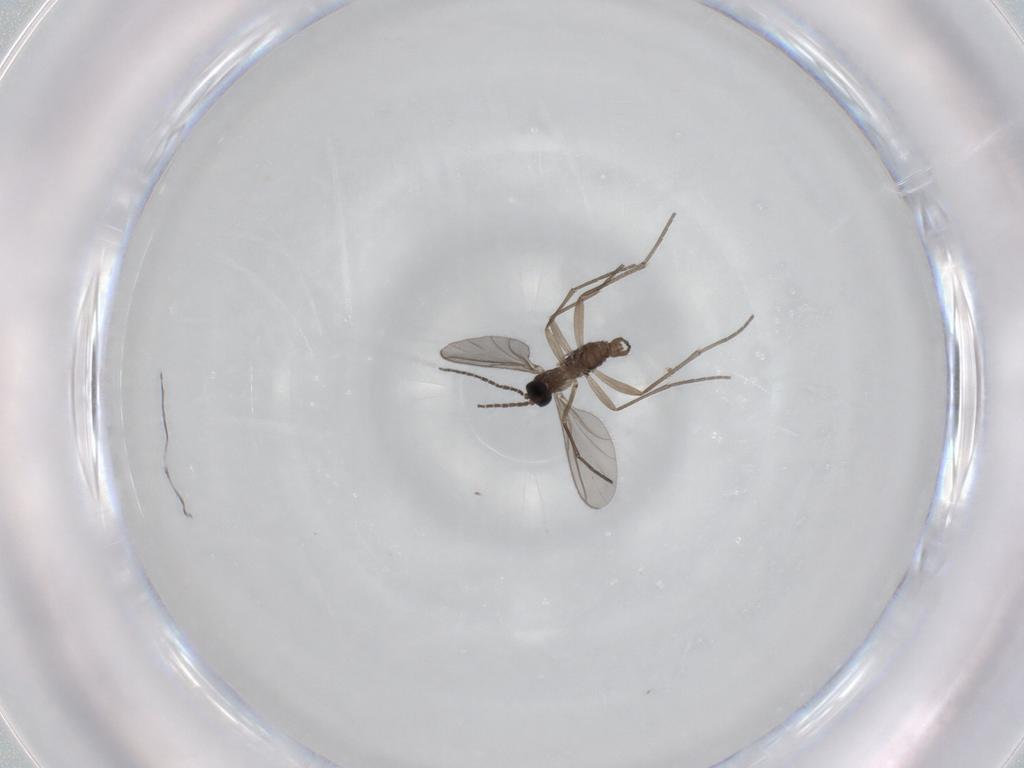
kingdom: Animalia
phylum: Arthropoda
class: Insecta
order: Diptera
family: Sciaridae
